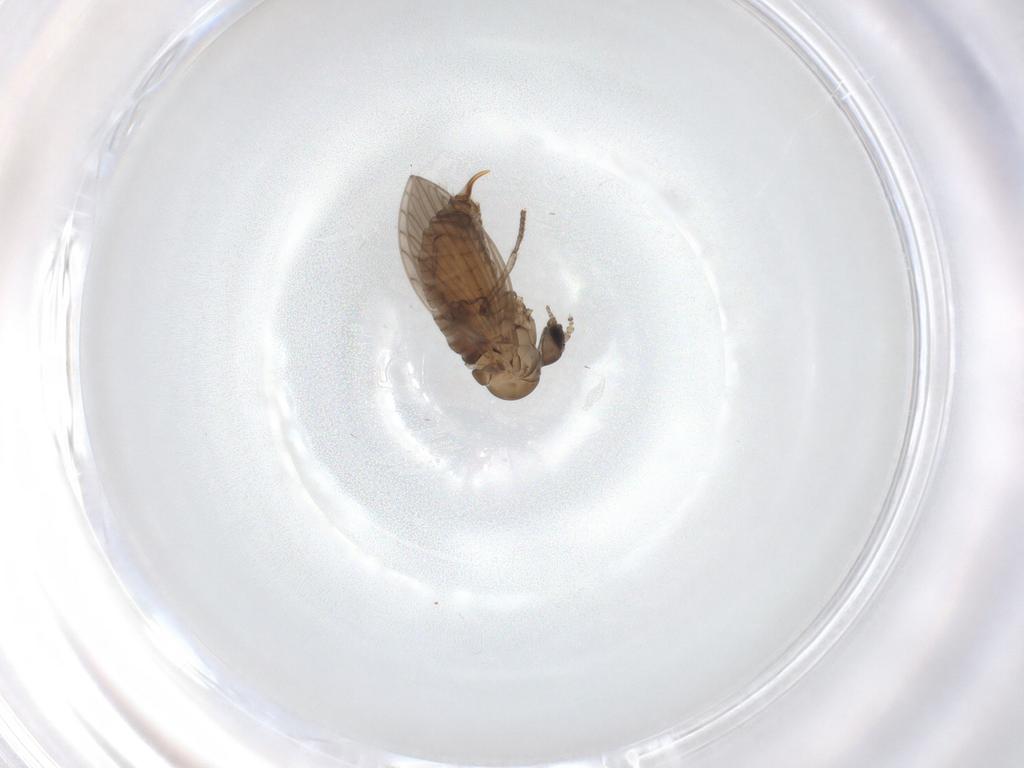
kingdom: Animalia
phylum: Arthropoda
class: Insecta
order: Diptera
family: Psychodidae
